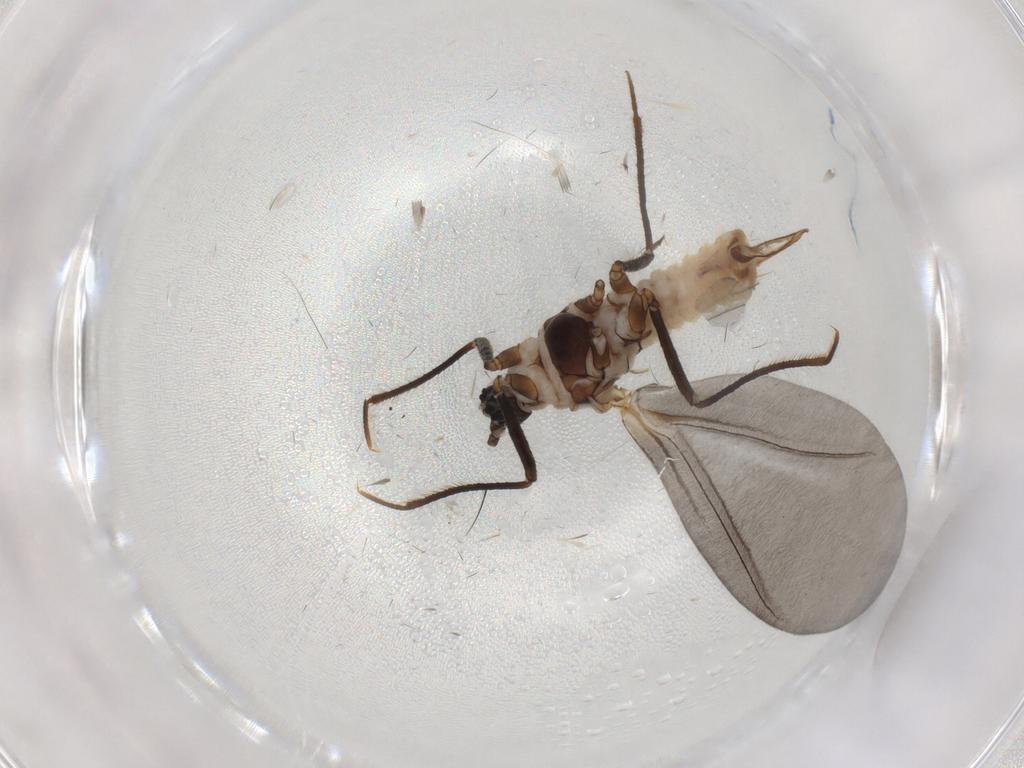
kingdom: Animalia
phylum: Arthropoda
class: Insecta
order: Hemiptera
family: Putoidae
